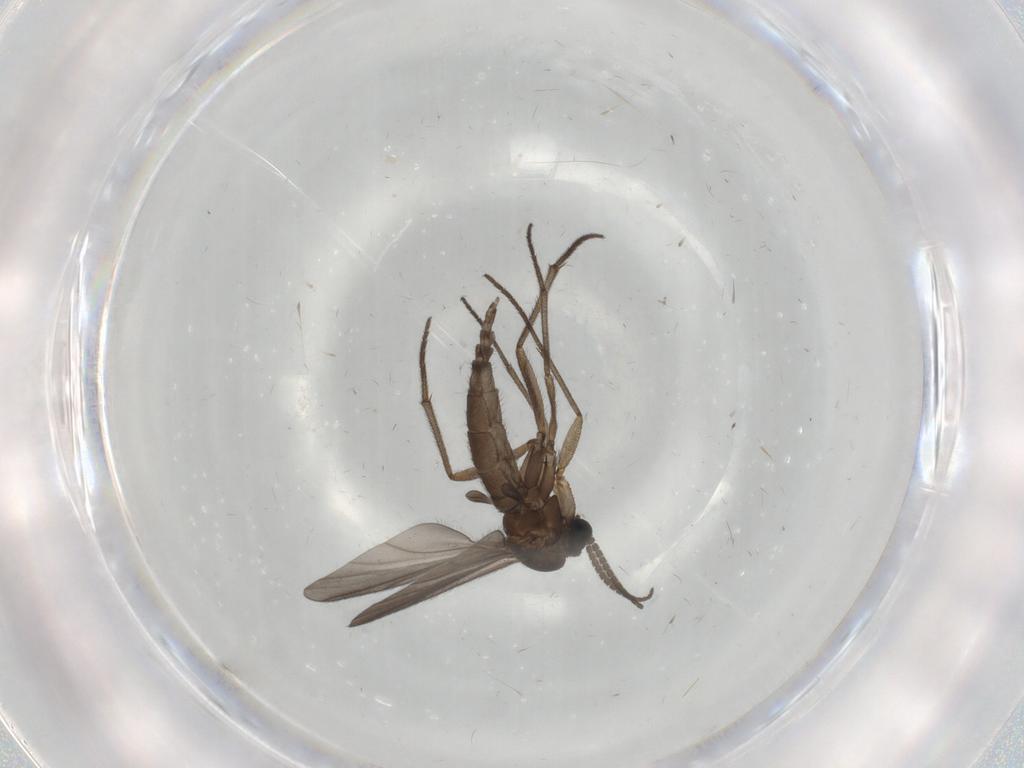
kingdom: Animalia
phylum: Arthropoda
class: Insecta
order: Diptera
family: Sciaridae
